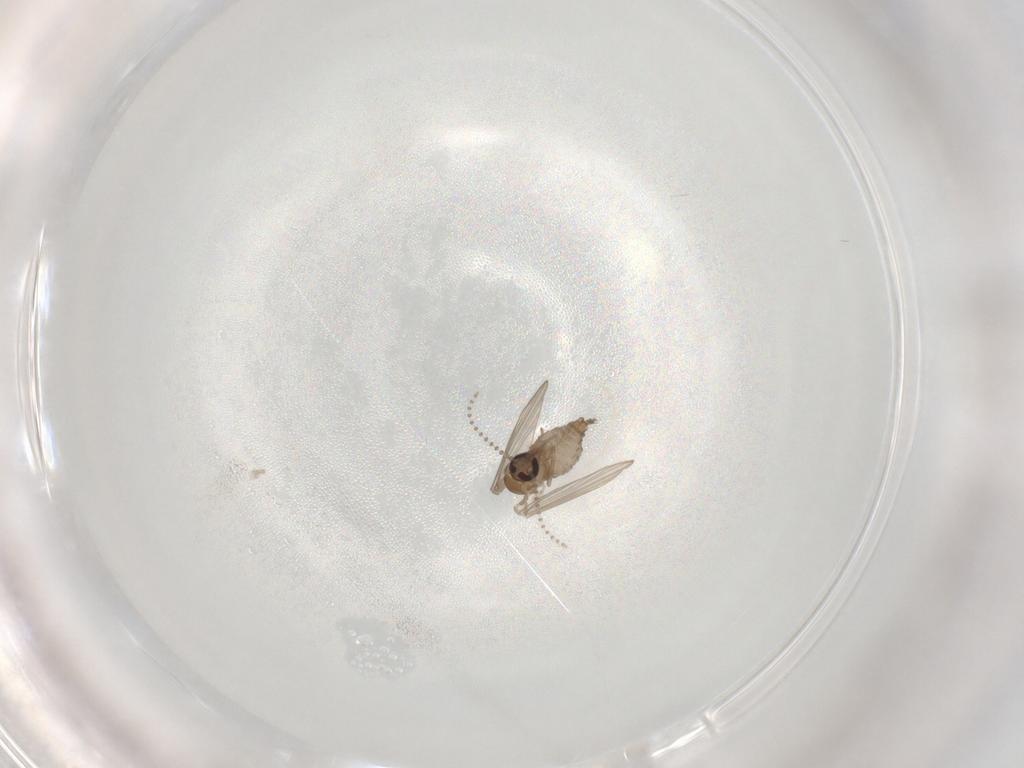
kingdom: Animalia
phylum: Arthropoda
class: Insecta
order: Diptera
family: Psychodidae
